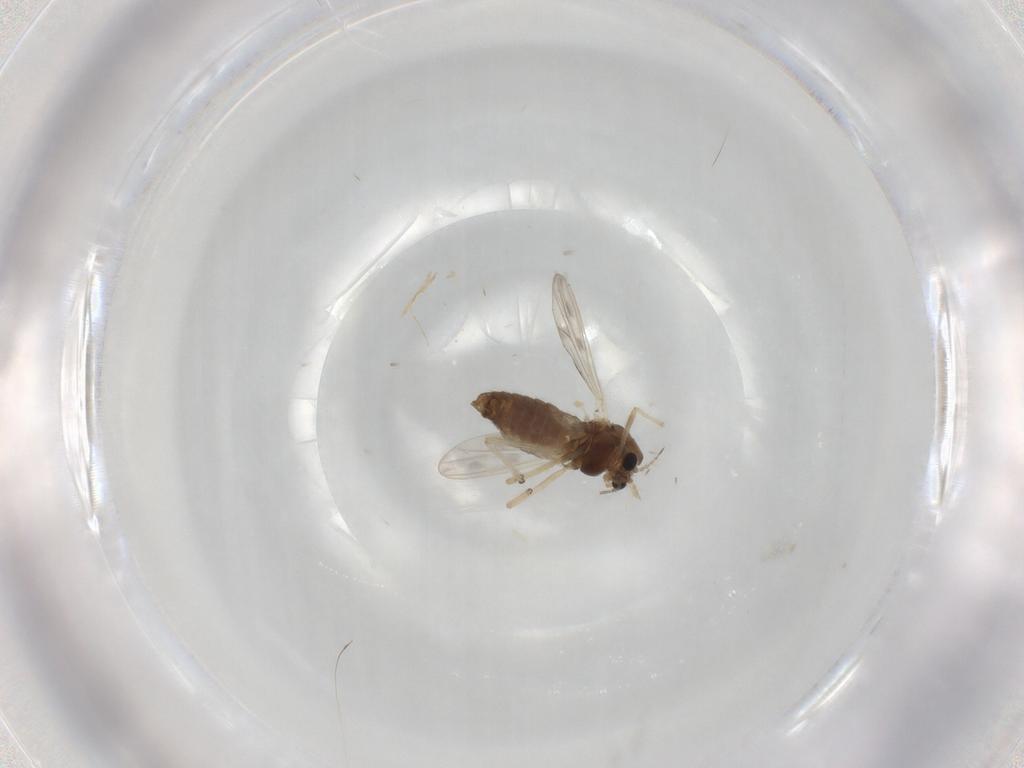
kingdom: Animalia
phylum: Arthropoda
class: Insecta
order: Diptera
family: Chironomidae
